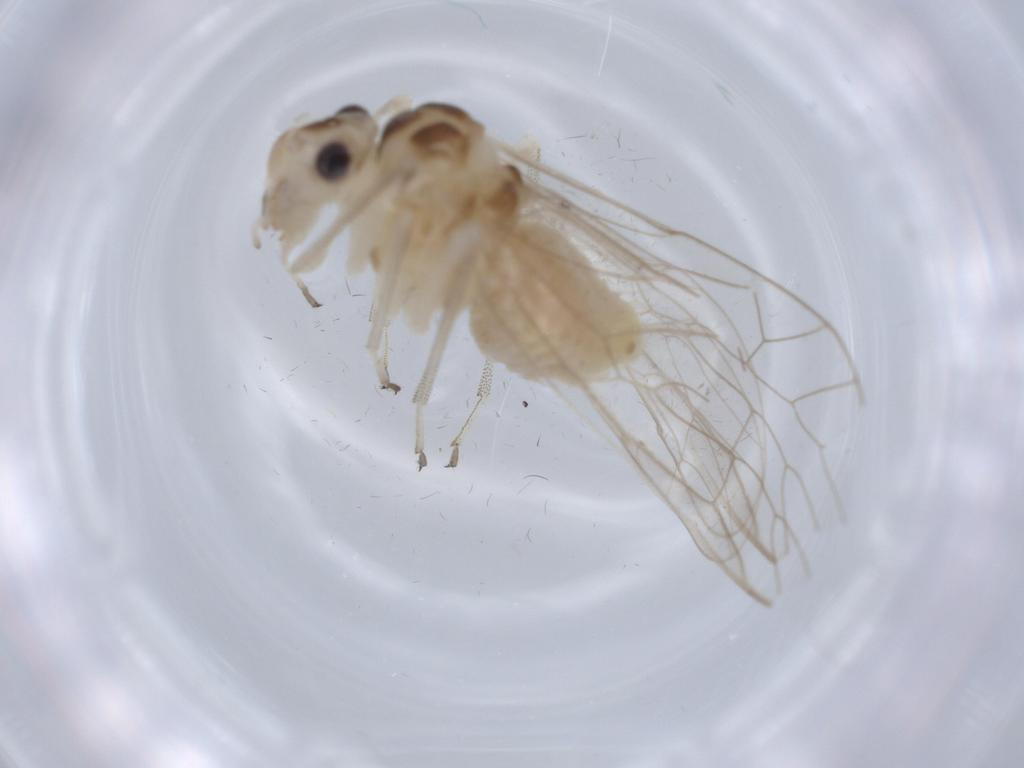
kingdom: Animalia
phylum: Arthropoda
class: Insecta
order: Psocodea
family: Stenopsocidae
